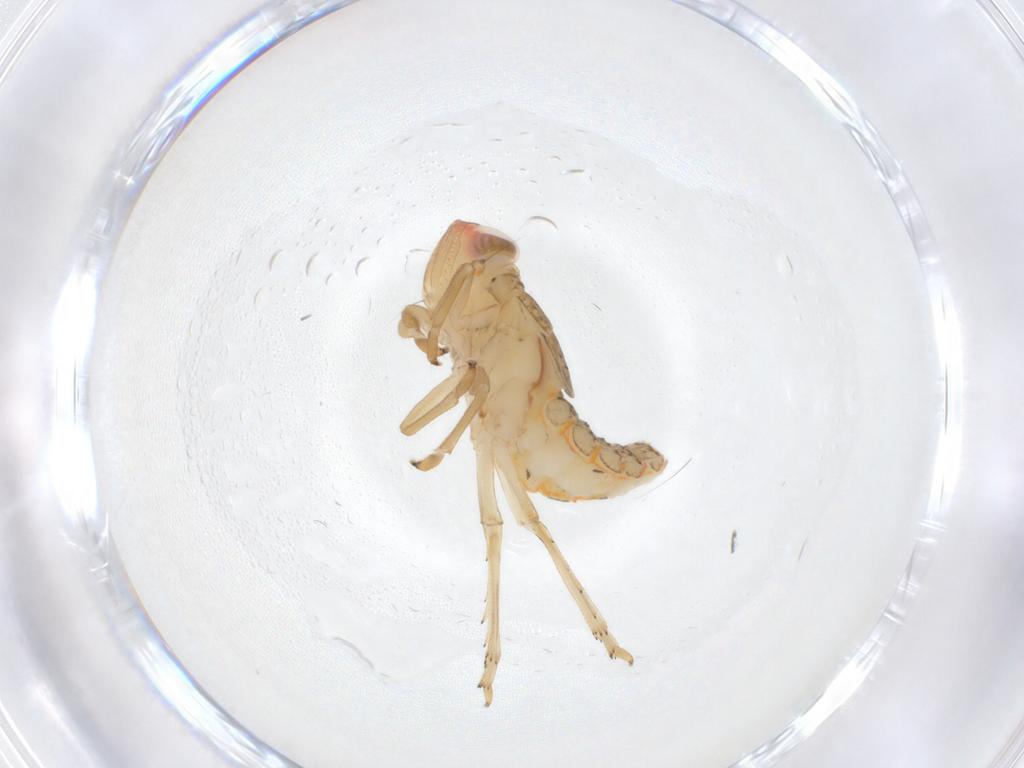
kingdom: Animalia
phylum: Arthropoda
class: Insecta
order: Hemiptera
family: Fulgoroidea_incertae_sedis
